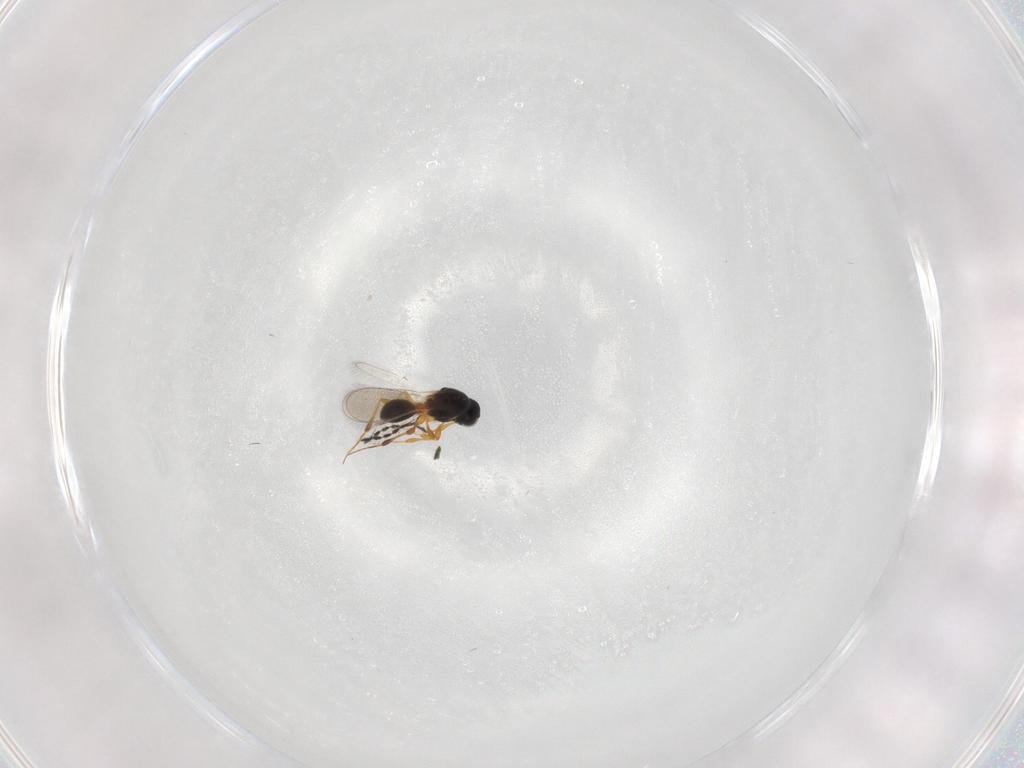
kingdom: Animalia
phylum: Arthropoda
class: Insecta
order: Hymenoptera
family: Platygastridae
